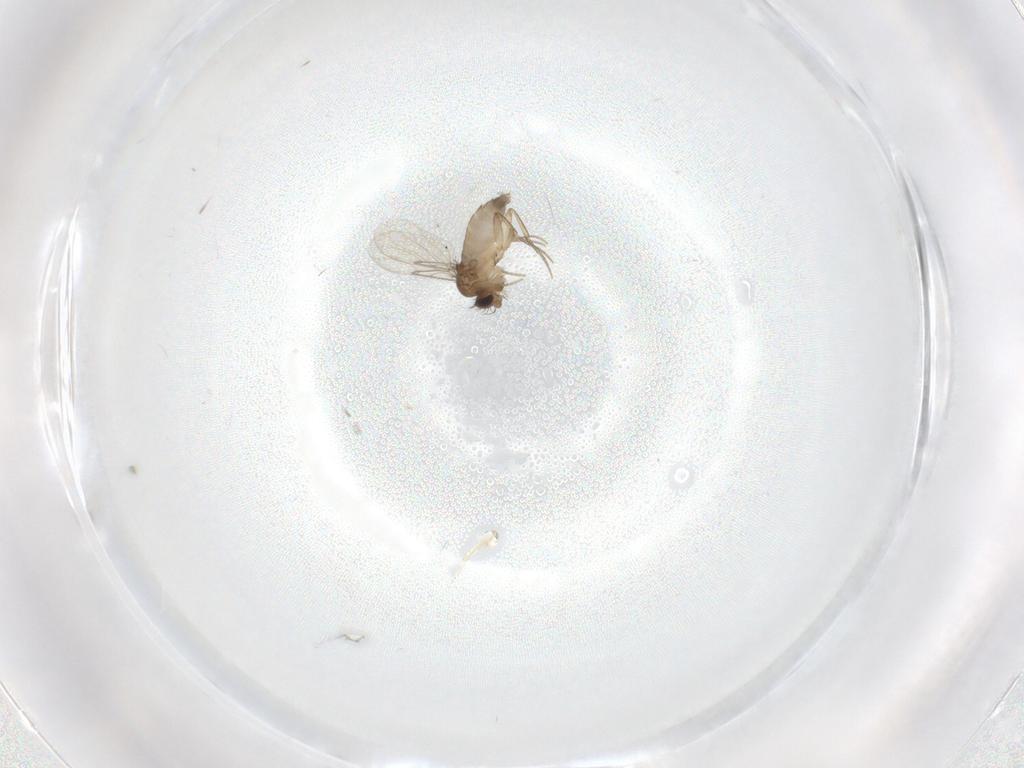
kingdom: Animalia
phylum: Arthropoda
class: Insecta
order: Diptera
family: Phoridae
